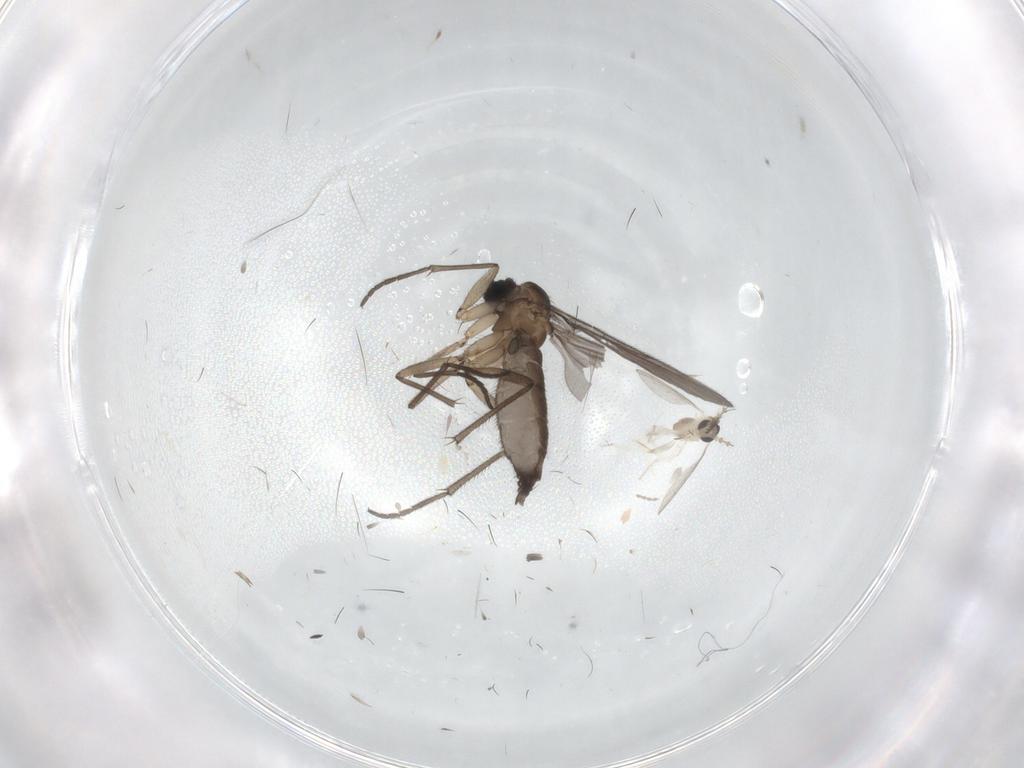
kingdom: Animalia
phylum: Arthropoda
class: Insecta
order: Diptera
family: Sciaridae
